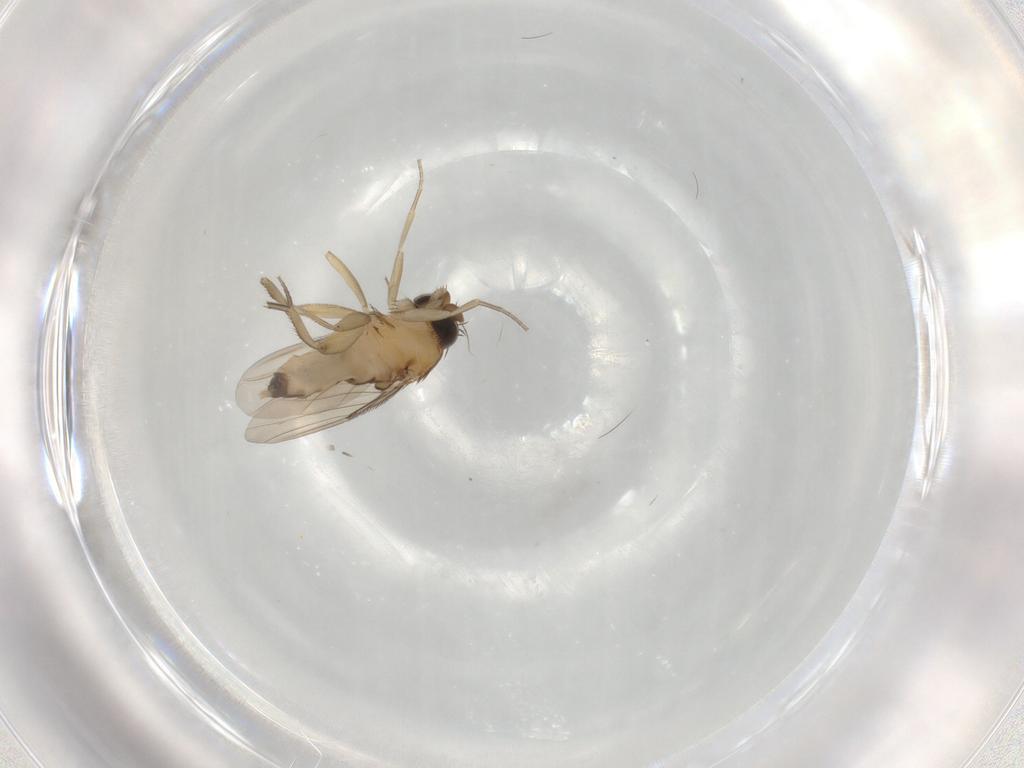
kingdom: Animalia
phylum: Arthropoda
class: Insecta
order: Diptera
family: Phoridae
